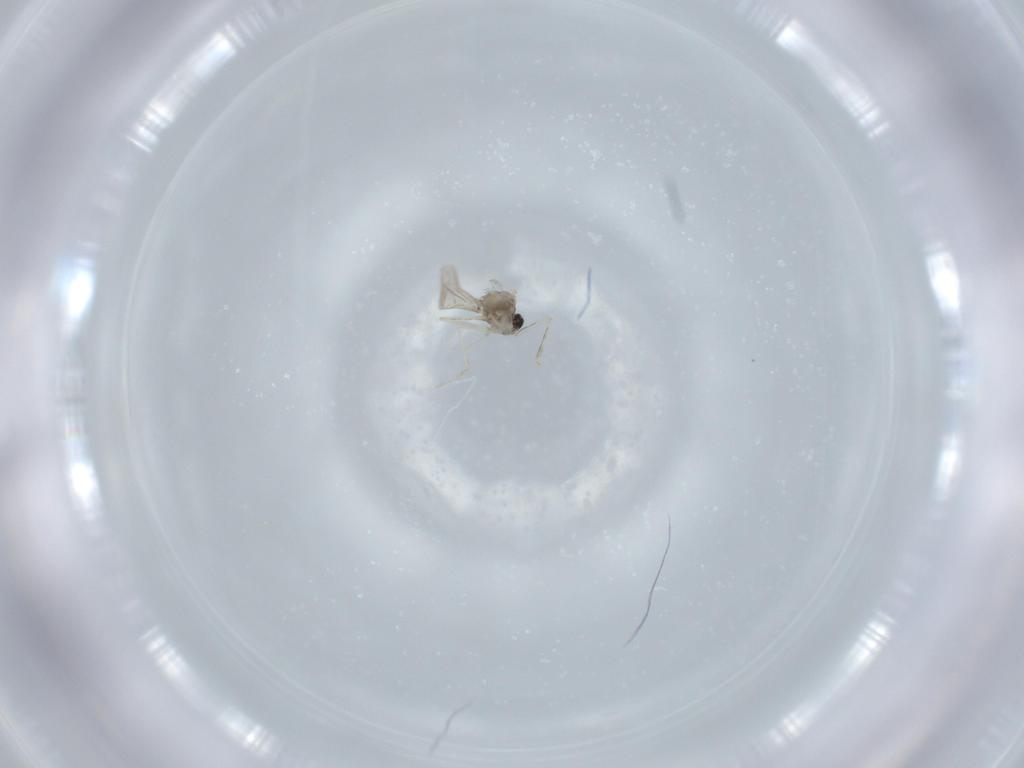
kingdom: Animalia
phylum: Arthropoda
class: Insecta
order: Diptera
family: Cecidomyiidae
